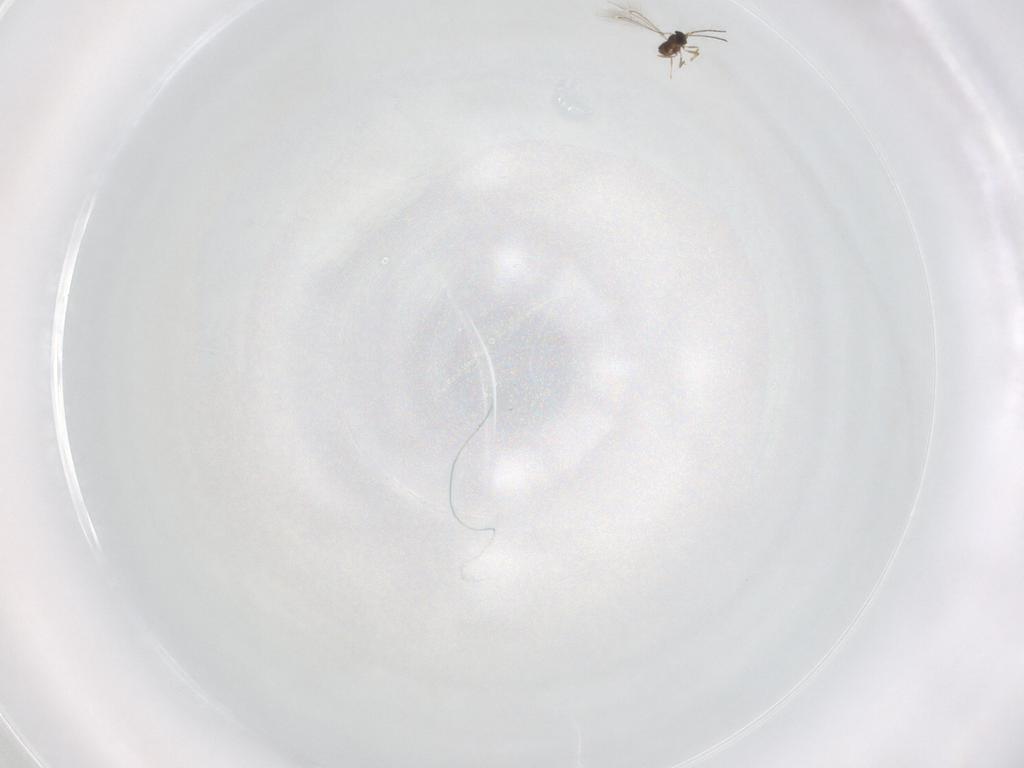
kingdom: Animalia
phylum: Arthropoda
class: Insecta
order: Hymenoptera
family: Mymaridae
